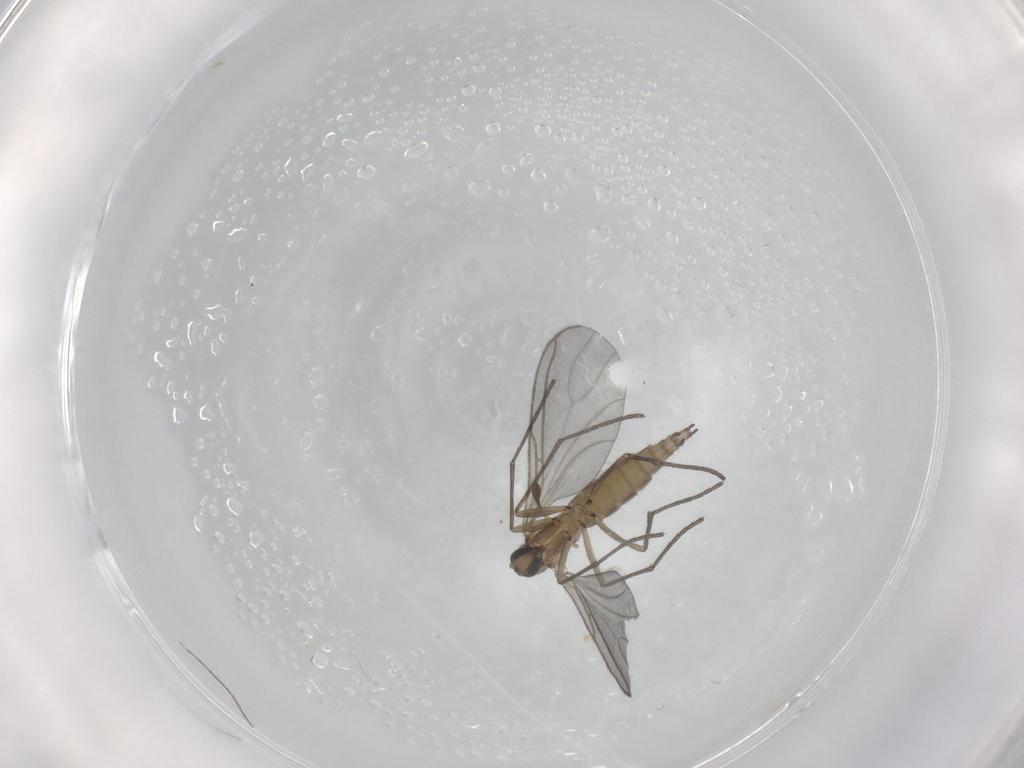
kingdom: Animalia
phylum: Arthropoda
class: Insecta
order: Diptera
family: Sciaridae
